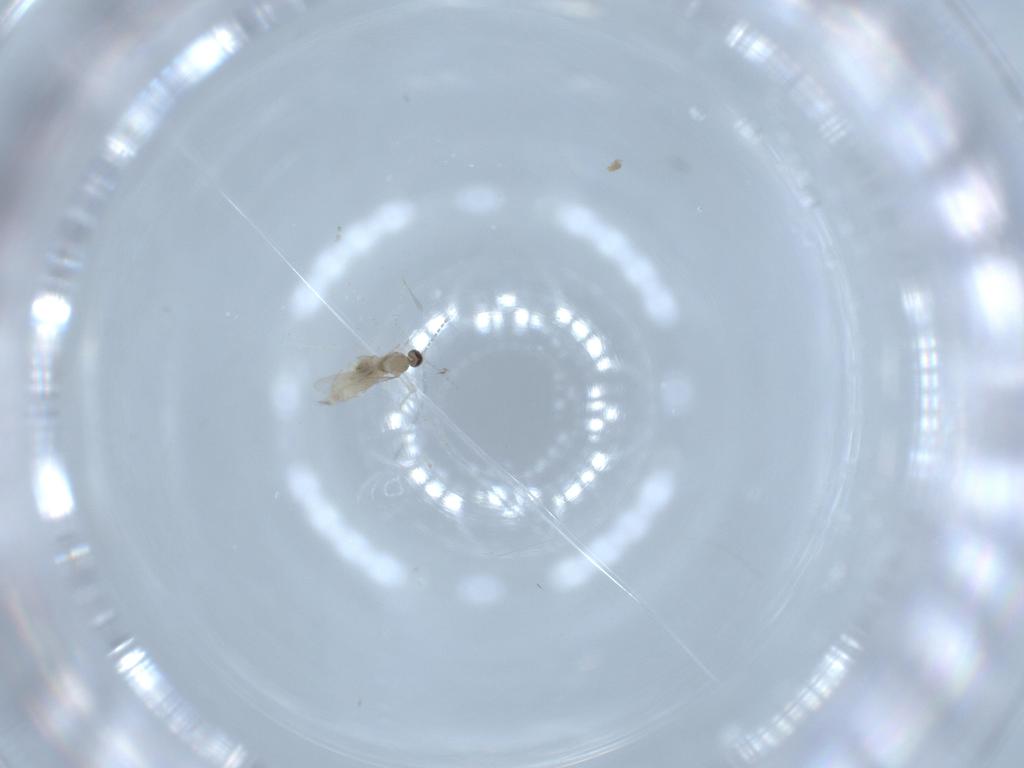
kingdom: Animalia
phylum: Arthropoda
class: Insecta
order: Diptera
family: Cecidomyiidae
